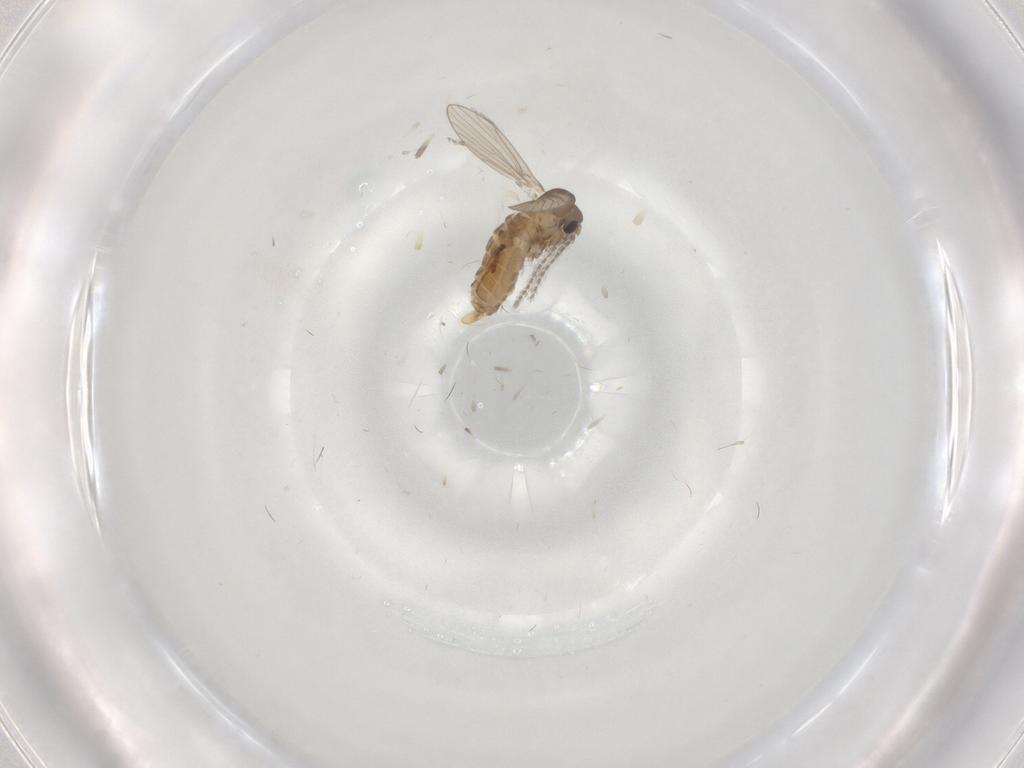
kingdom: Animalia
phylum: Arthropoda
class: Insecta
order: Diptera
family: Chironomidae
